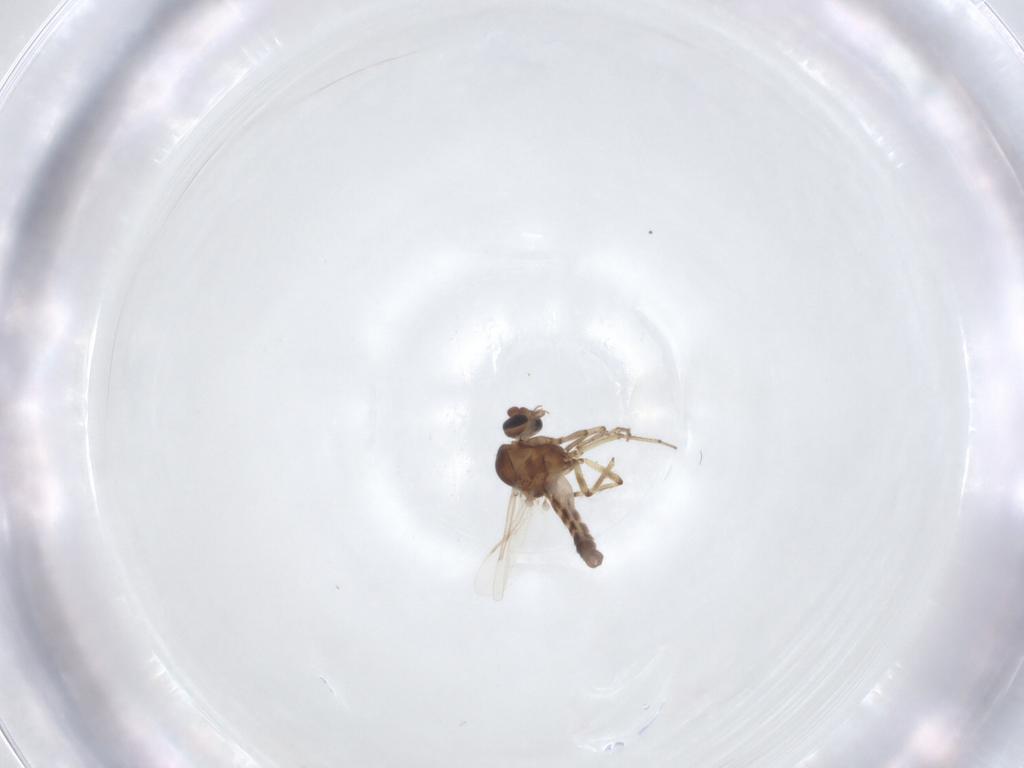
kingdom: Animalia
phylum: Arthropoda
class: Insecta
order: Diptera
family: Ceratopogonidae
